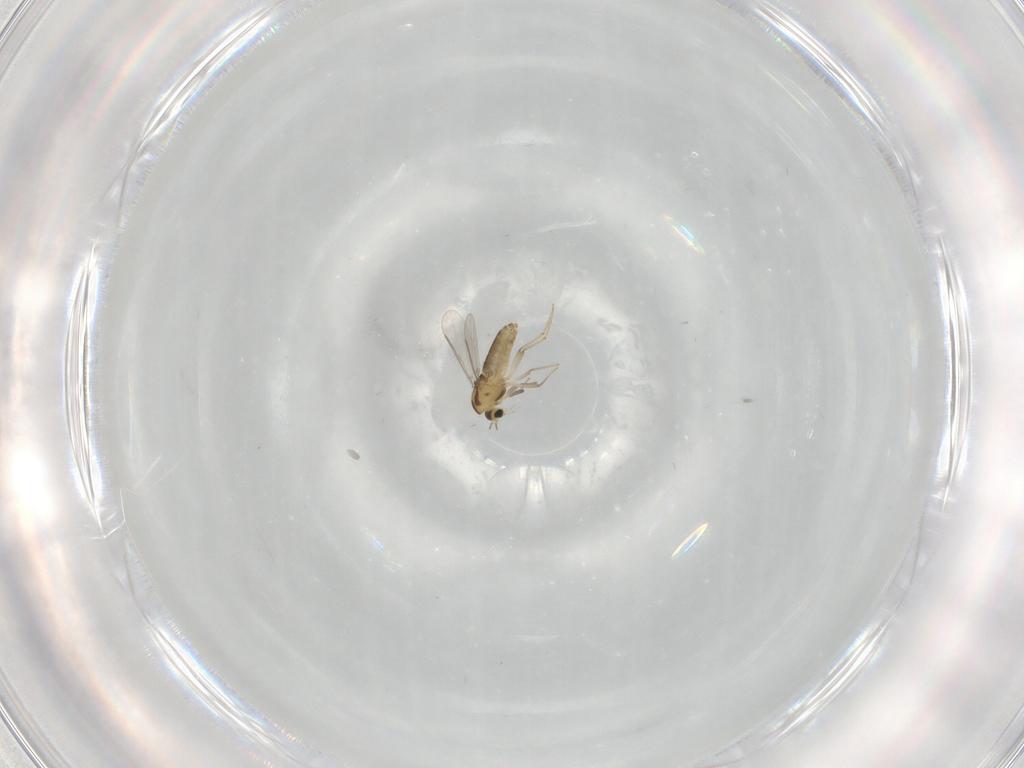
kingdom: Animalia
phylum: Arthropoda
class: Insecta
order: Diptera
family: Chironomidae
